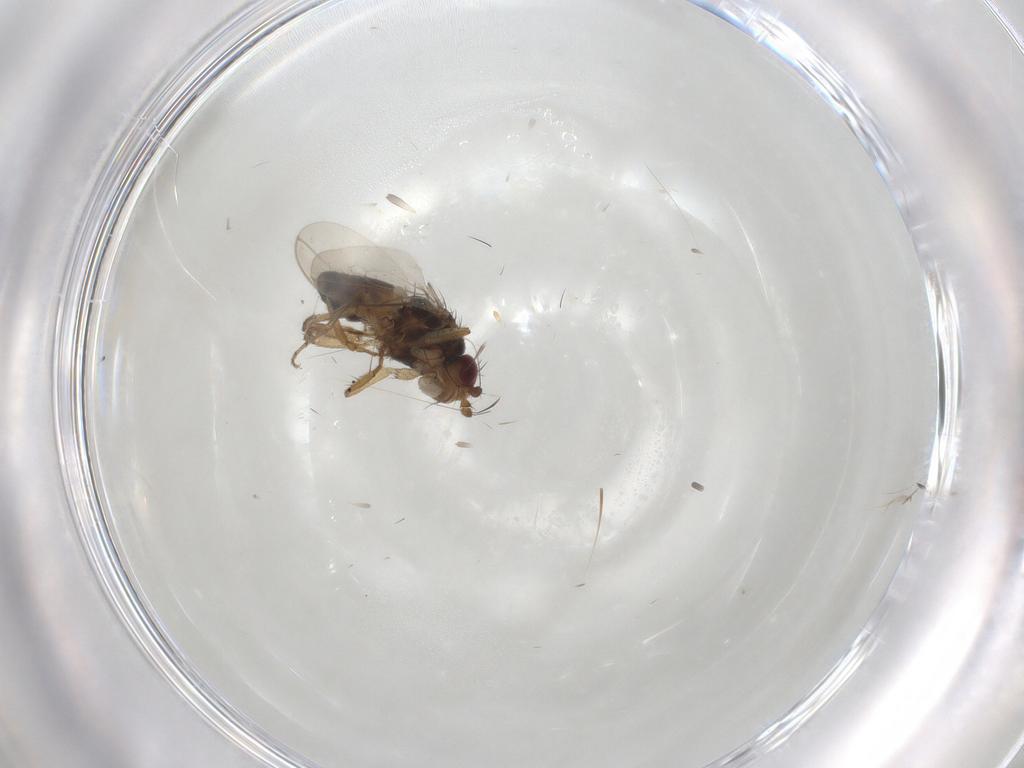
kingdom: Animalia
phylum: Arthropoda
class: Insecta
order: Diptera
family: Sphaeroceridae
